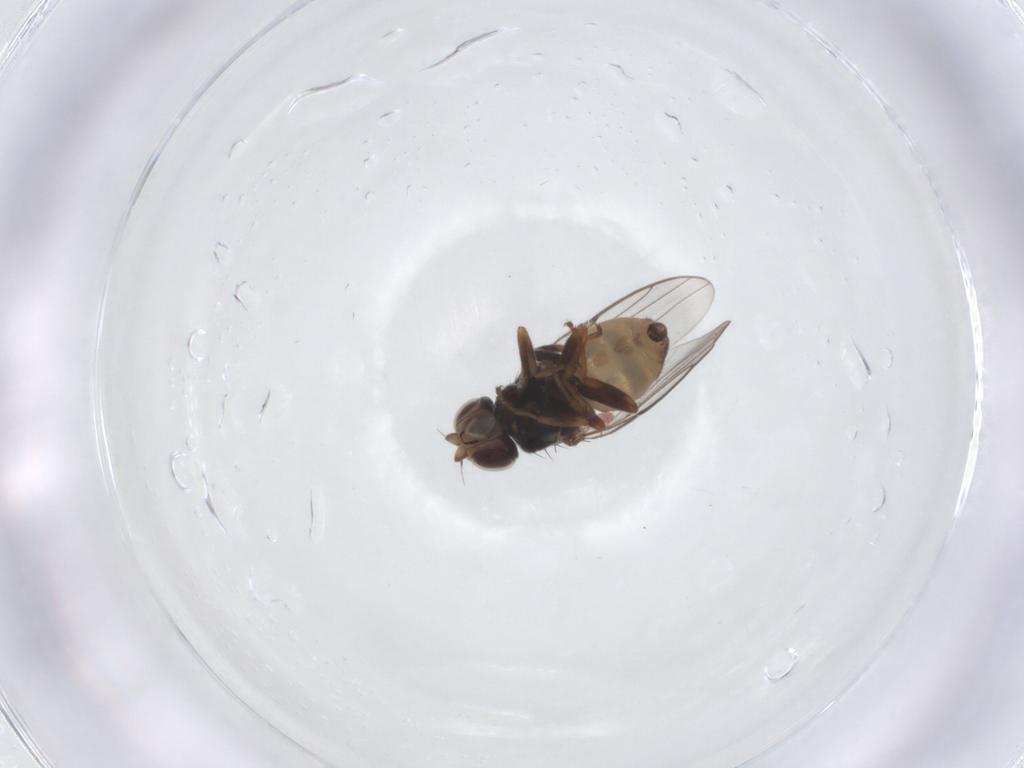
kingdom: Animalia
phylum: Arthropoda
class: Insecta
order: Diptera
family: Chloropidae
